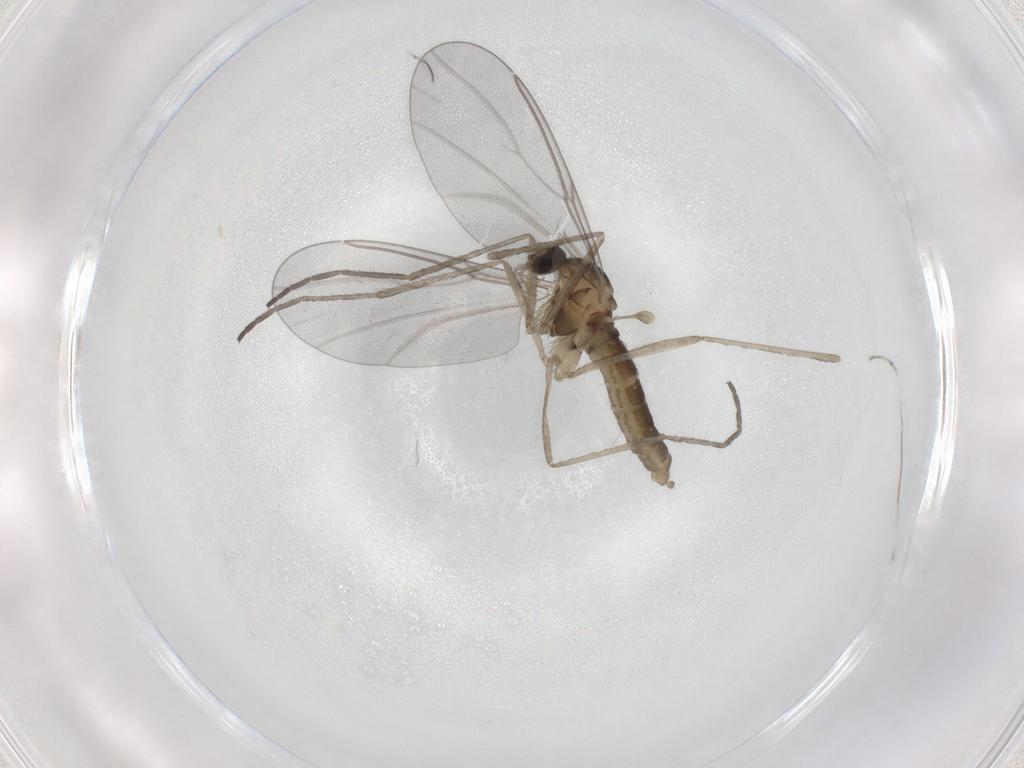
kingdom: Animalia
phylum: Arthropoda
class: Insecta
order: Diptera
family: Cecidomyiidae
